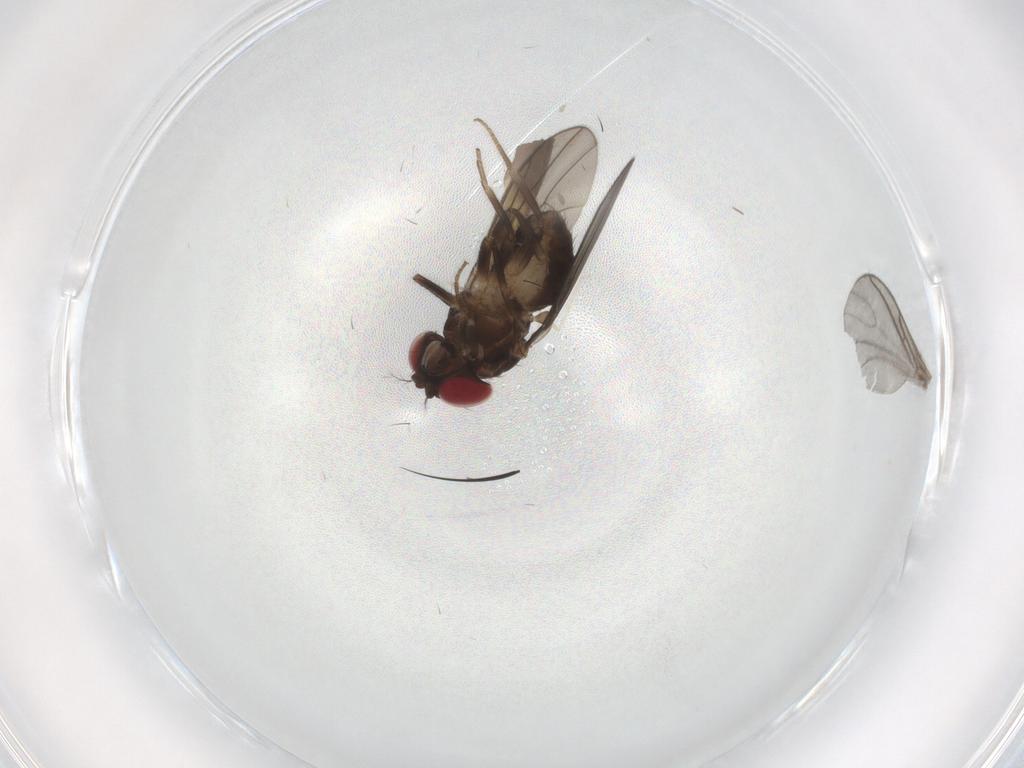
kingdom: Animalia
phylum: Arthropoda
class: Insecta
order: Diptera
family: Drosophilidae
